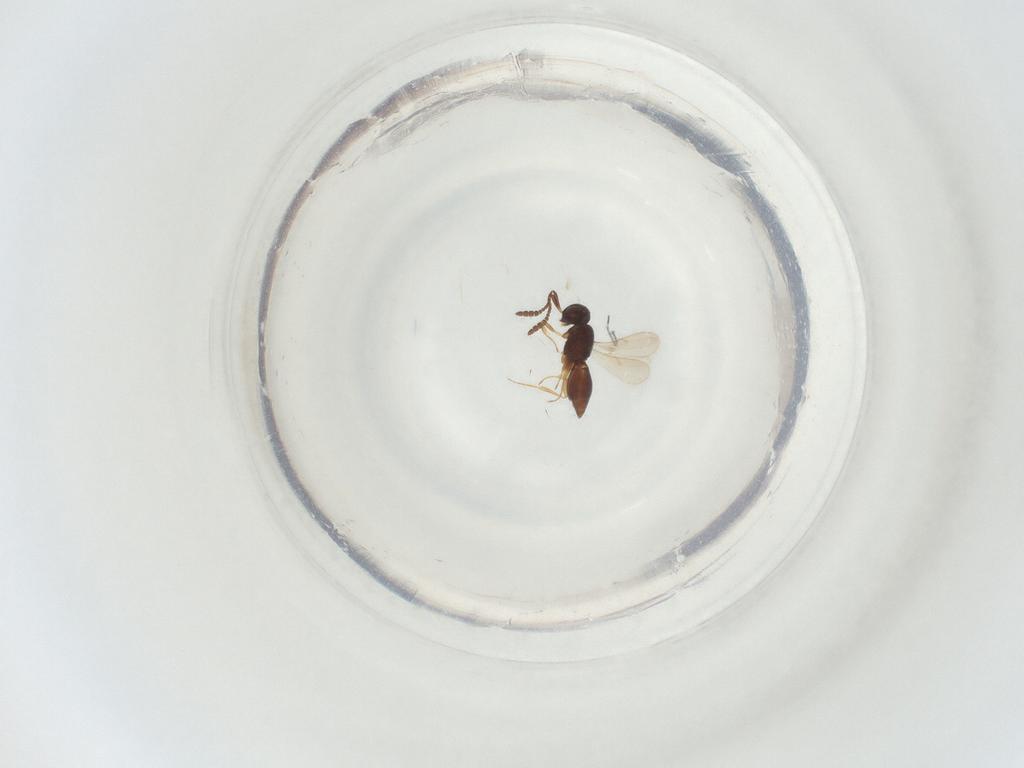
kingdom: Animalia
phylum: Arthropoda
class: Insecta
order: Hymenoptera
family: Scelionidae
